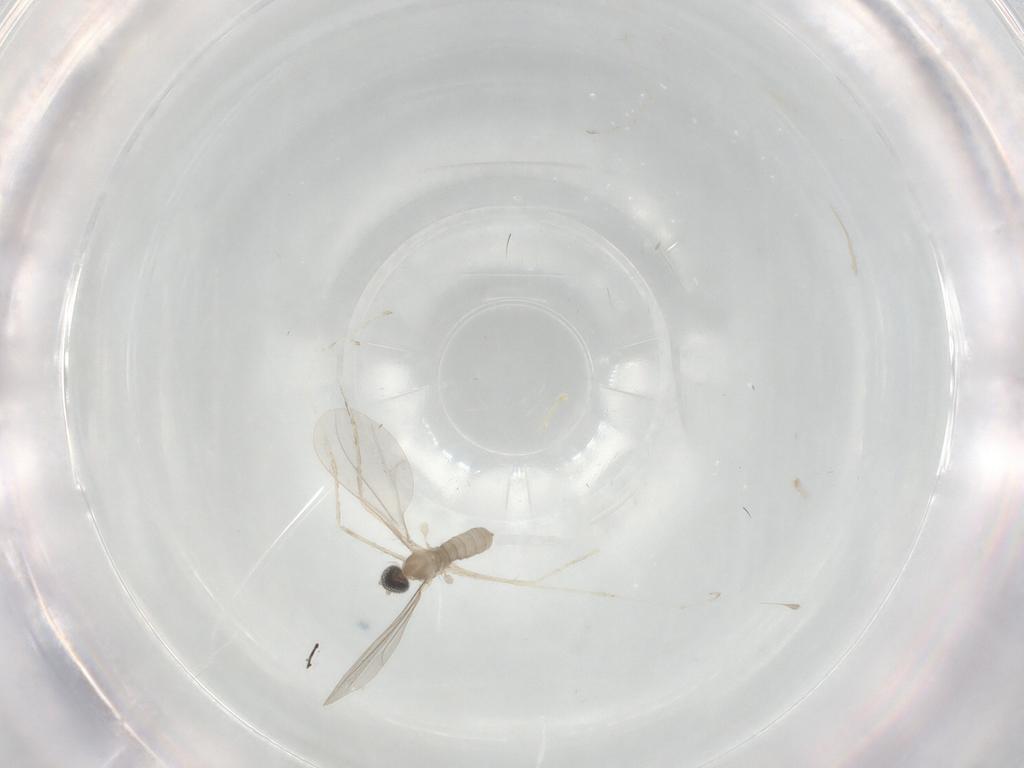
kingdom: Animalia
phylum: Arthropoda
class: Insecta
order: Diptera
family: Cecidomyiidae
